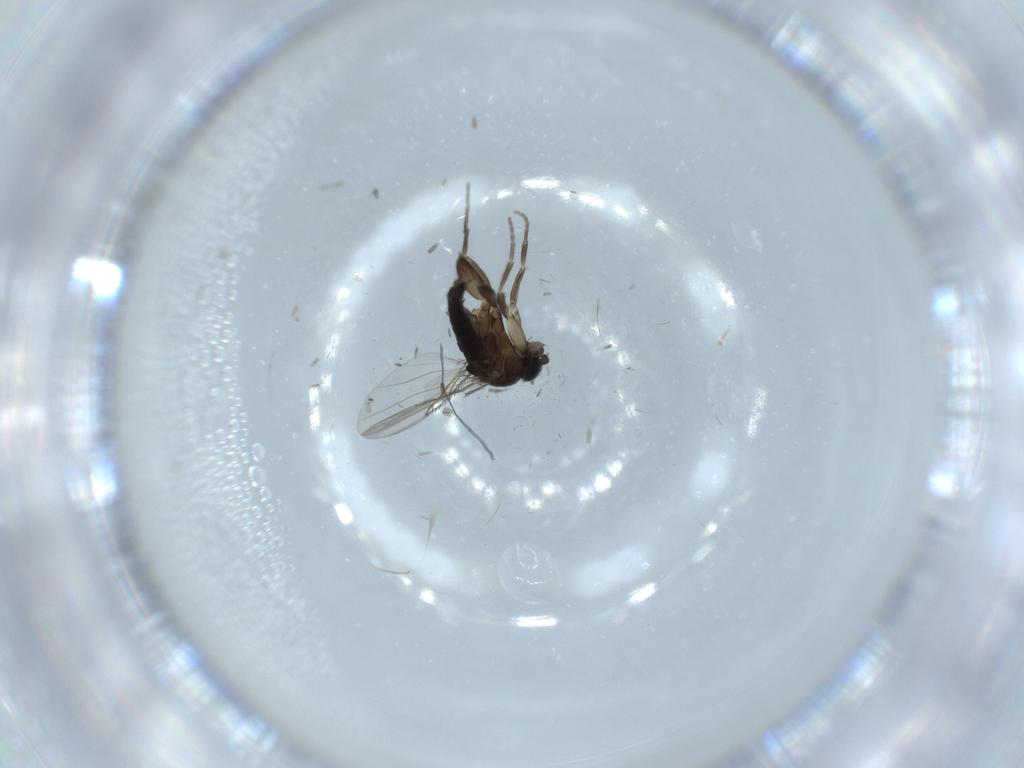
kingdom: Animalia
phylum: Arthropoda
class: Insecta
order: Diptera
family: Phoridae
